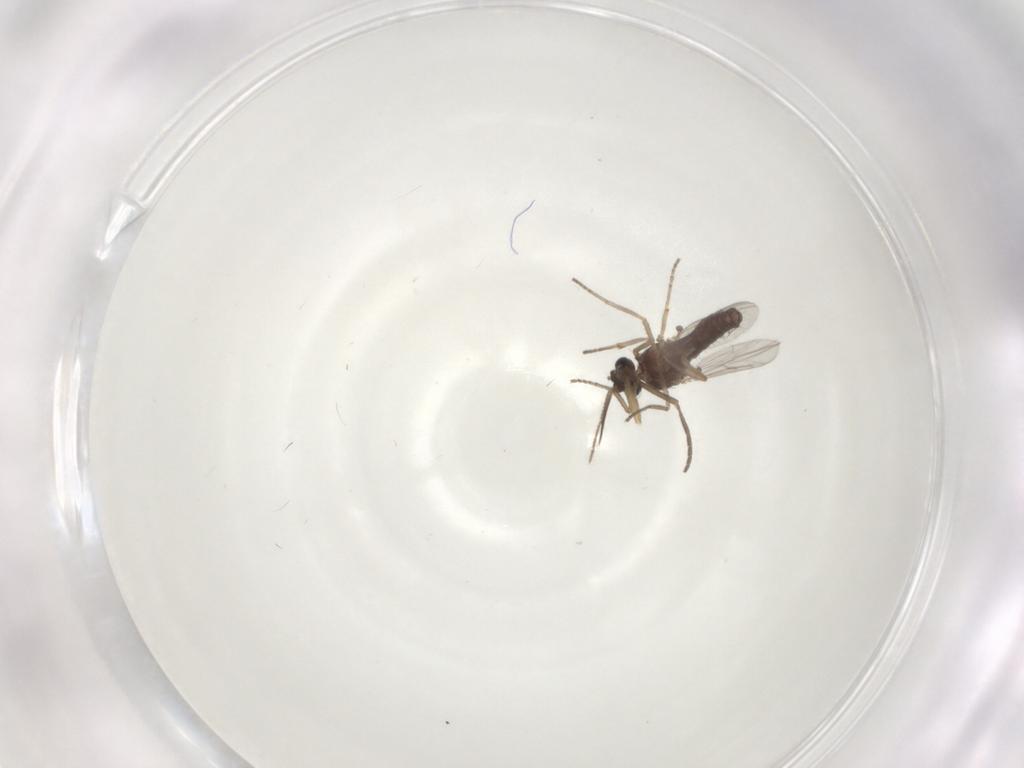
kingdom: Animalia
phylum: Arthropoda
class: Insecta
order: Diptera
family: Ceratopogonidae
